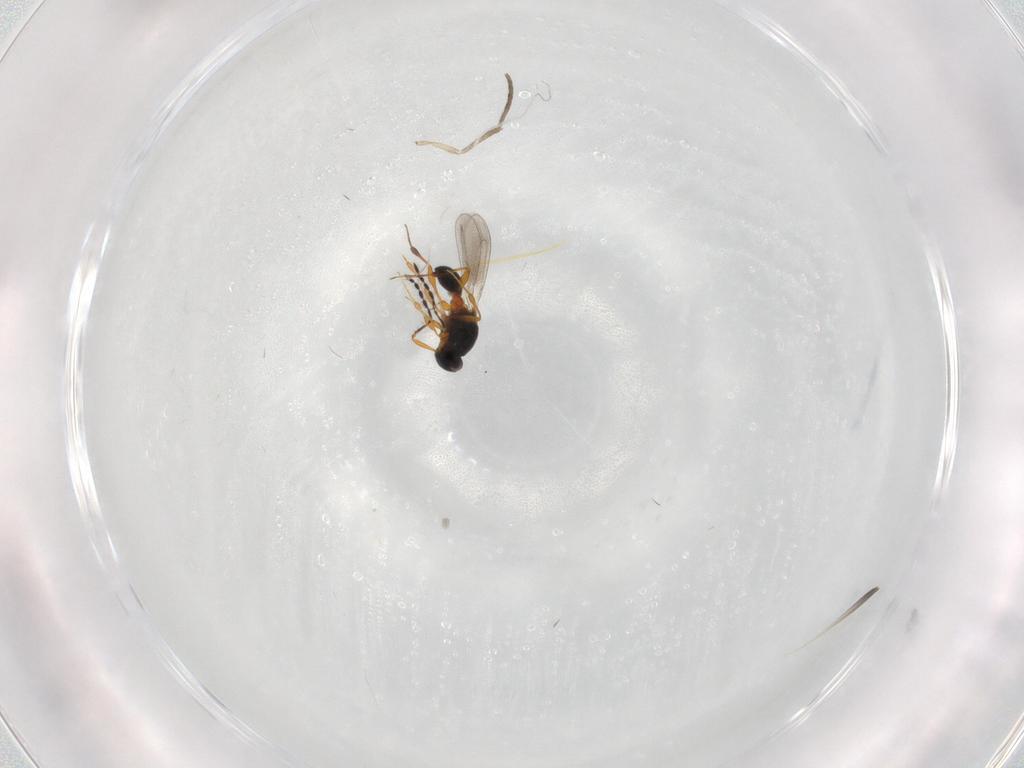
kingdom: Animalia
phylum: Arthropoda
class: Insecta
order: Hymenoptera
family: Platygastridae
